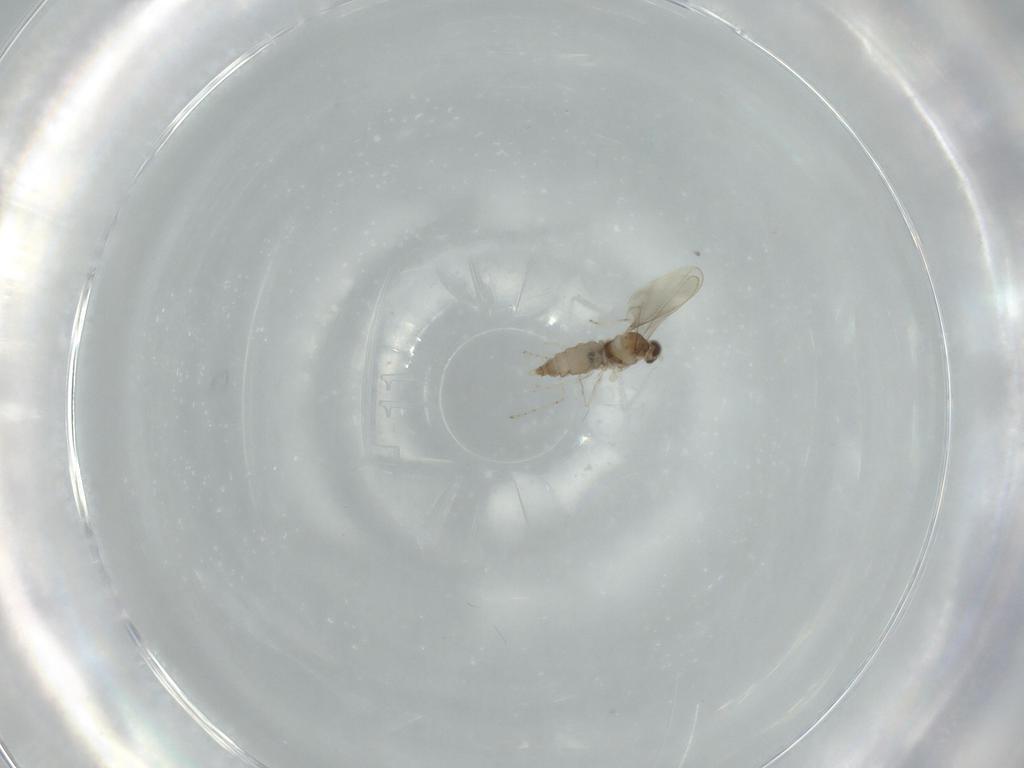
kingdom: Animalia
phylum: Arthropoda
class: Insecta
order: Diptera
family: Cecidomyiidae
